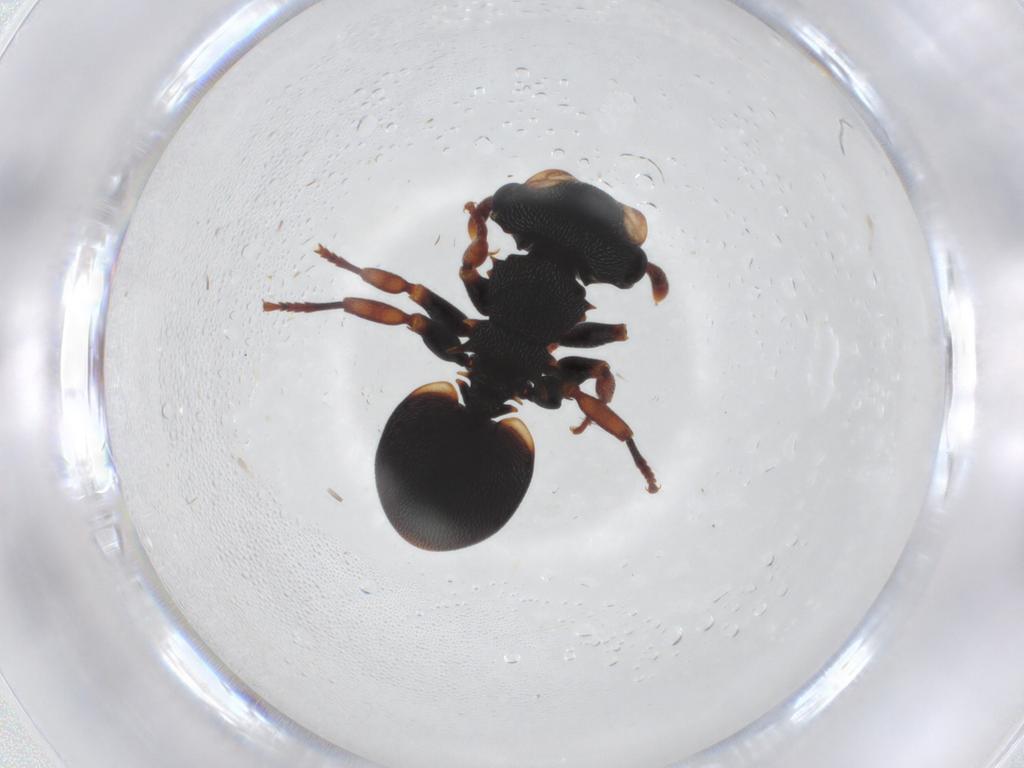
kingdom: Animalia
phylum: Arthropoda
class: Insecta
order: Hymenoptera
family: Formicidae
